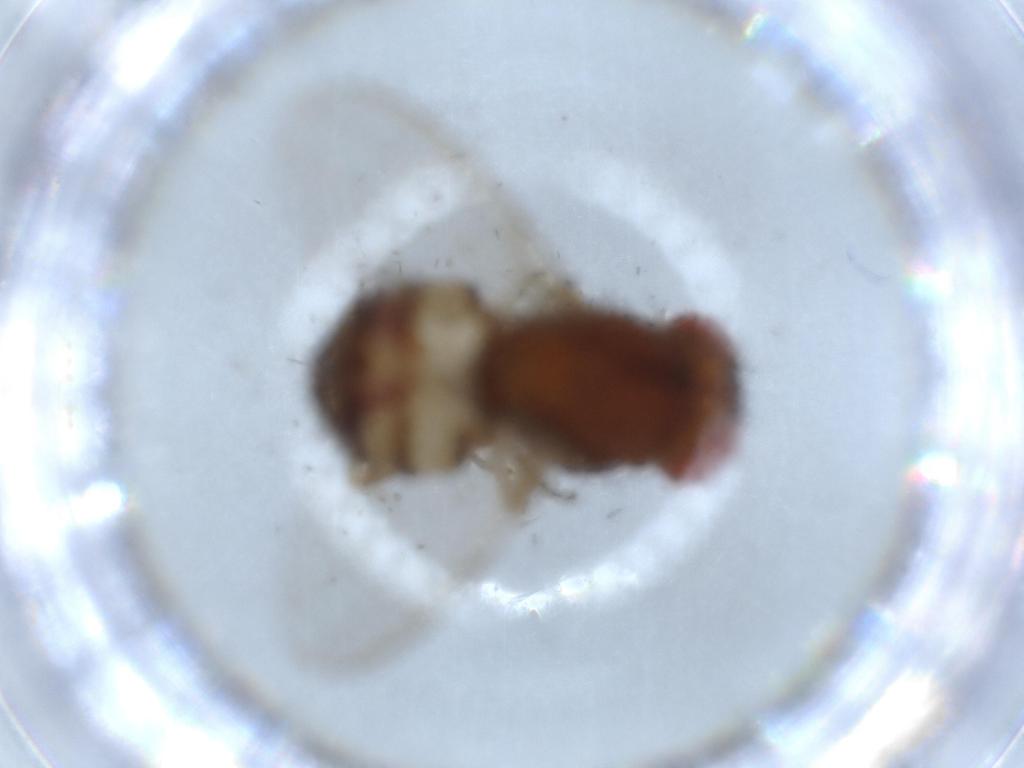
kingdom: Animalia
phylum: Arthropoda
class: Insecta
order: Diptera
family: Drosophilidae
